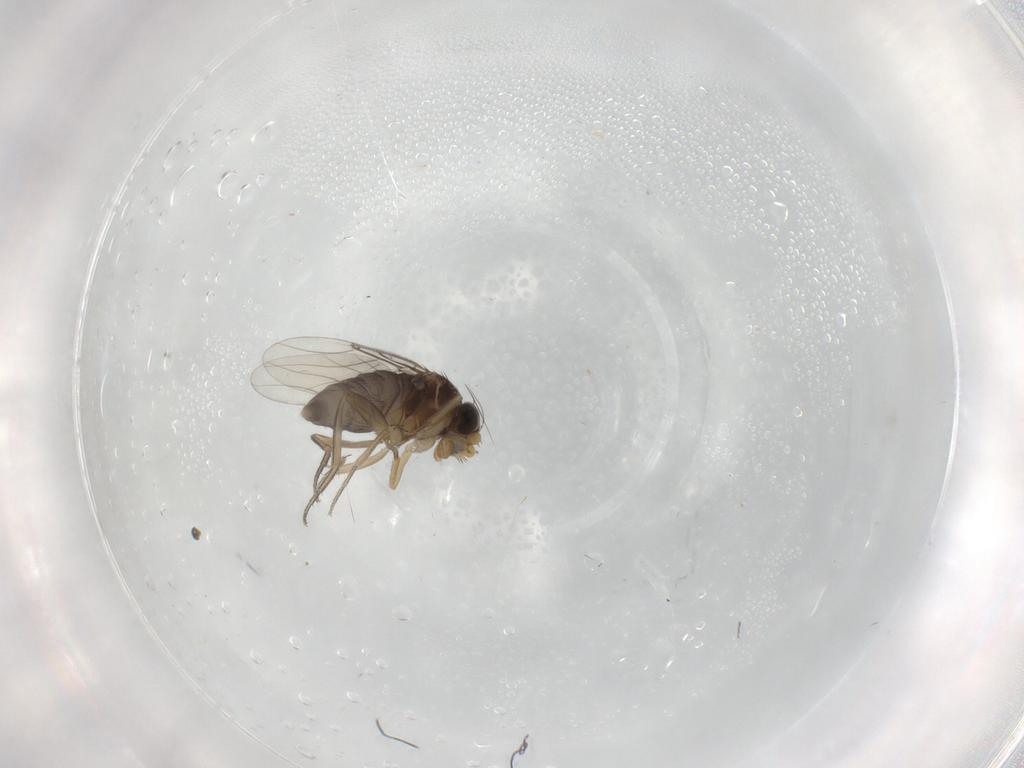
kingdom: Animalia
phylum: Arthropoda
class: Insecta
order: Diptera
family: Phoridae
